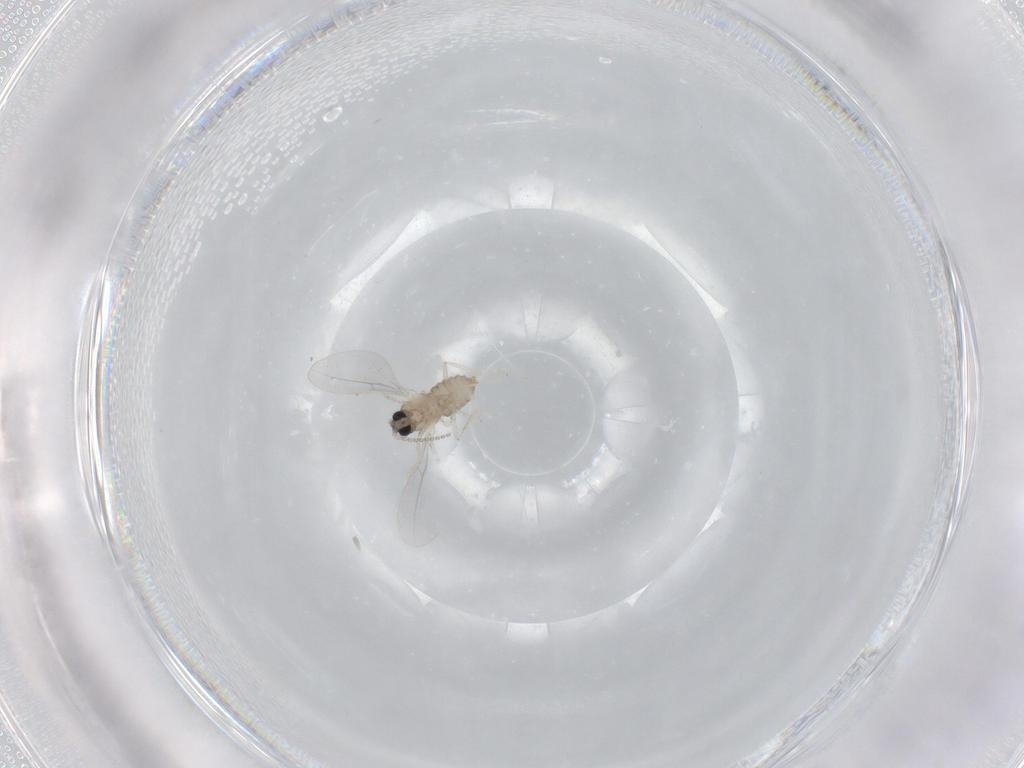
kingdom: Animalia
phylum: Arthropoda
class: Insecta
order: Diptera
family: Cecidomyiidae
